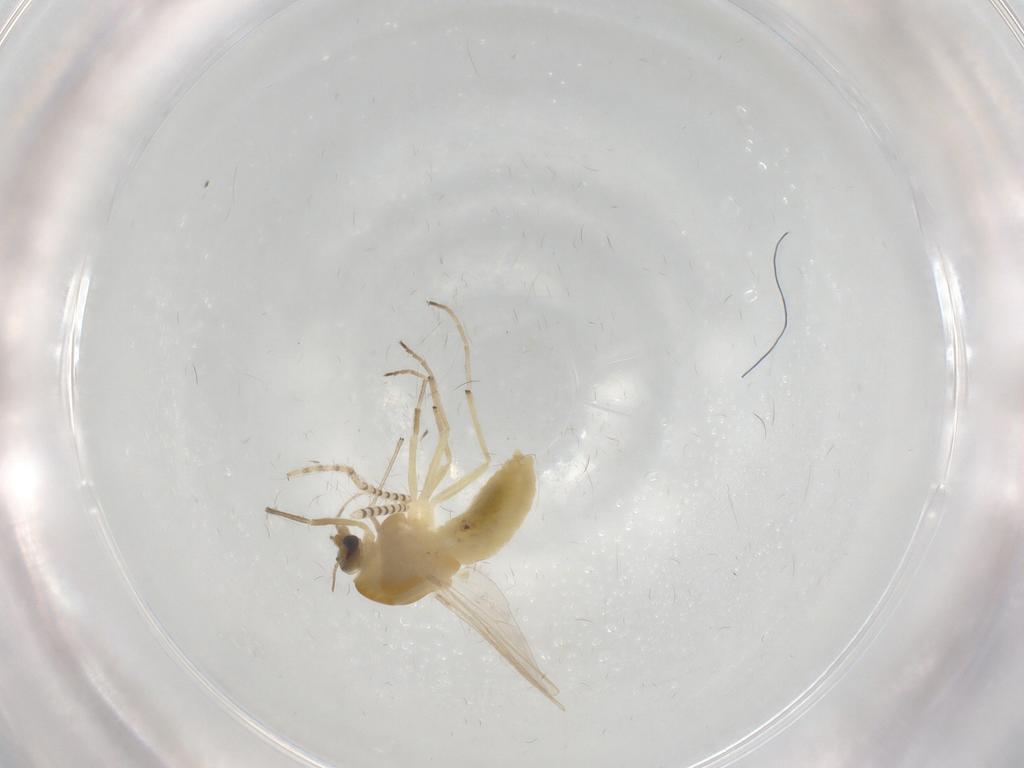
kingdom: Animalia
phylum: Arthropoda
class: Insecta
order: Diptera
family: Chironomidae
